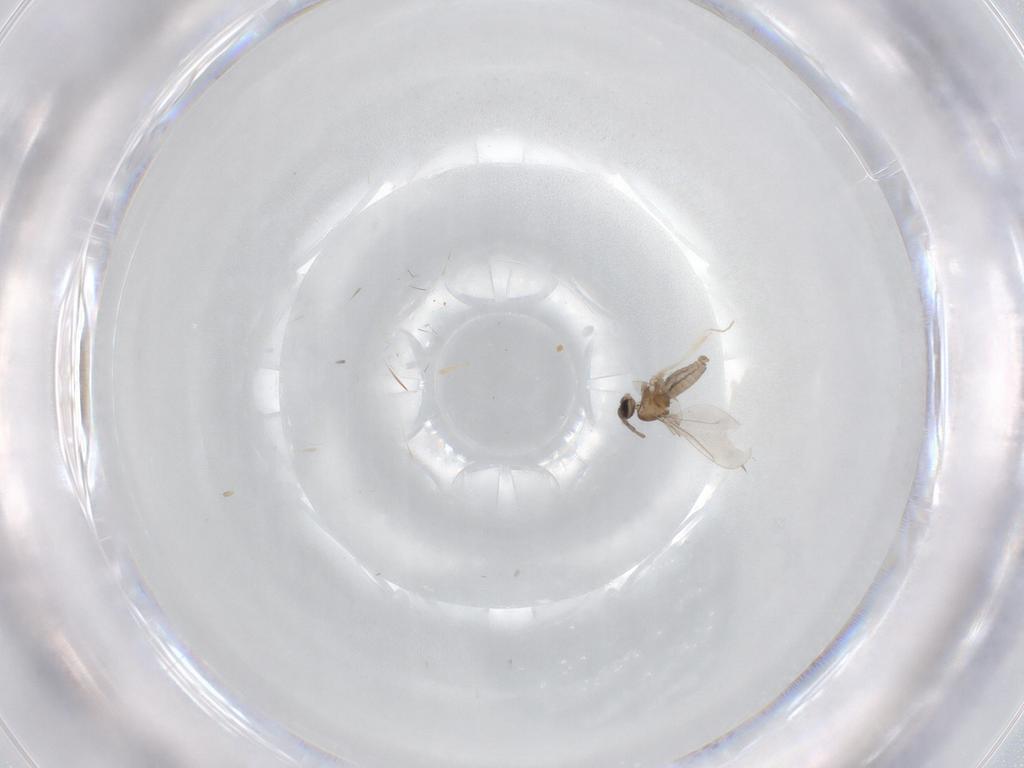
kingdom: Animalia
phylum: Arthropoda
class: Insecta
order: Diptera
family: Cecidomyiidae
